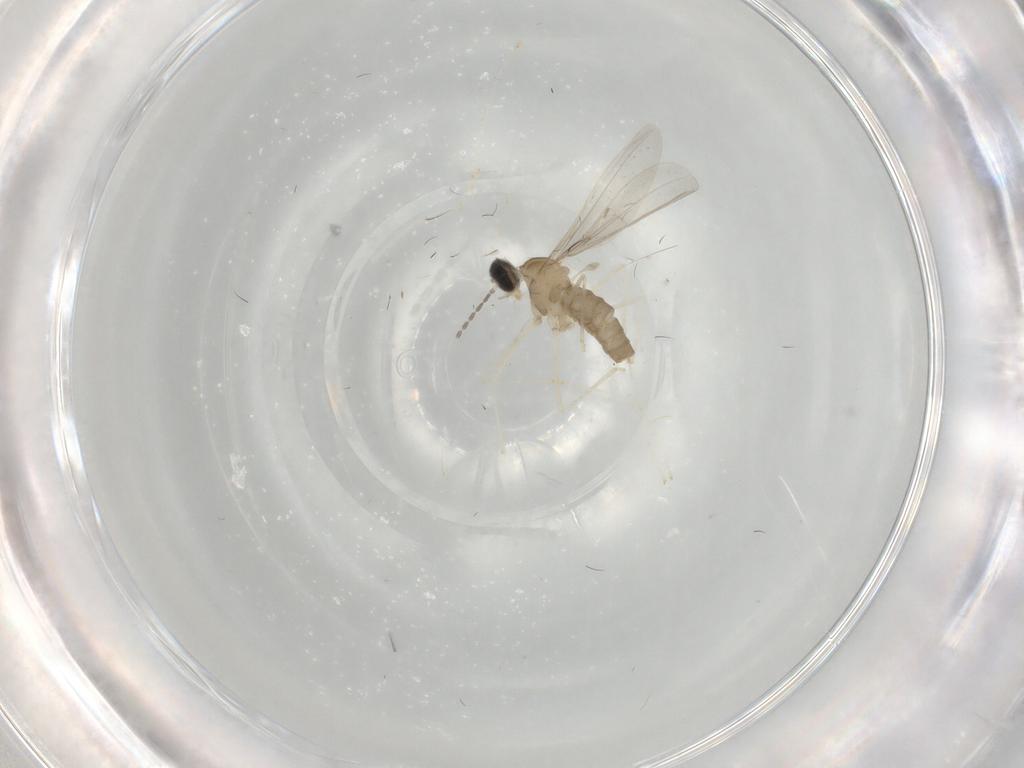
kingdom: Animalia
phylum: Arthropoda
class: Insecta
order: Diptera
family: Cecidomyiidae
